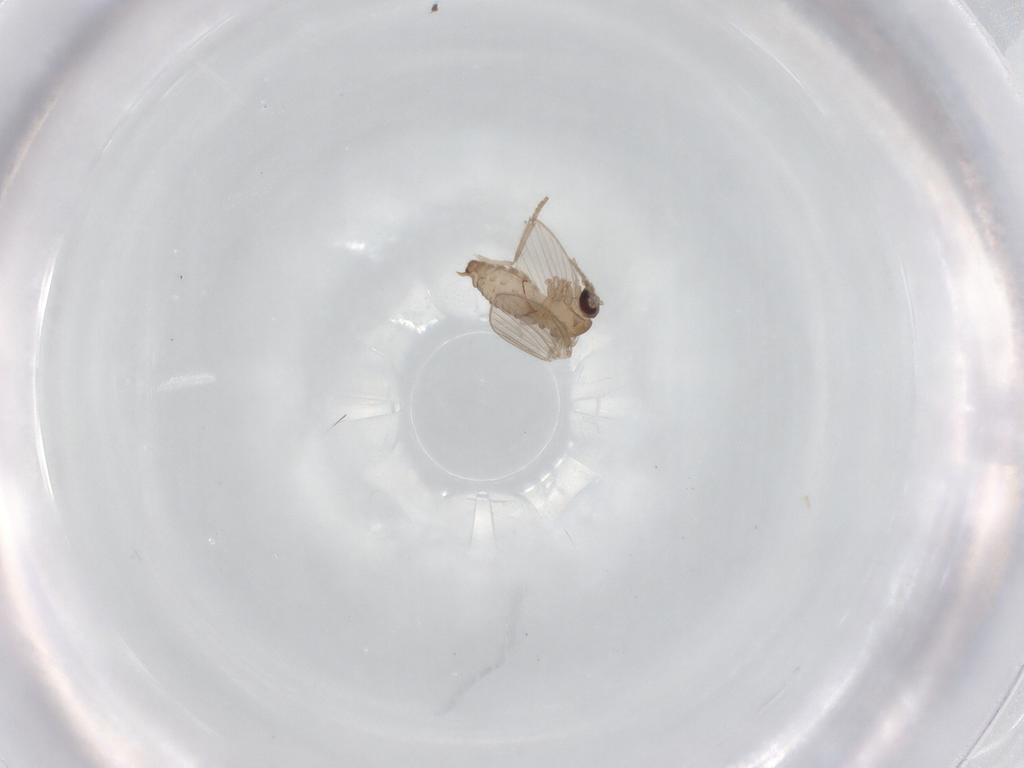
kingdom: Animalia
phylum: Arthropoda
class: Insecta
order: Diptera
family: Psychodidae
